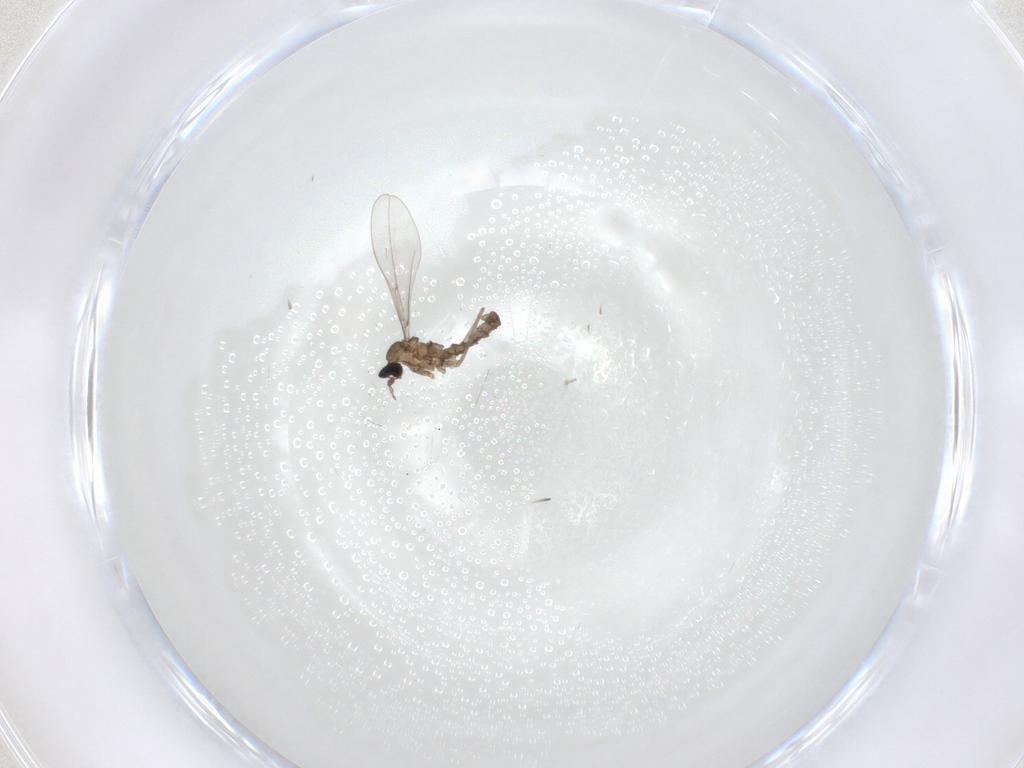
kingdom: Animalia
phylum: Arthropoda
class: Insecta
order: Diptera
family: Cecidomyiidae
